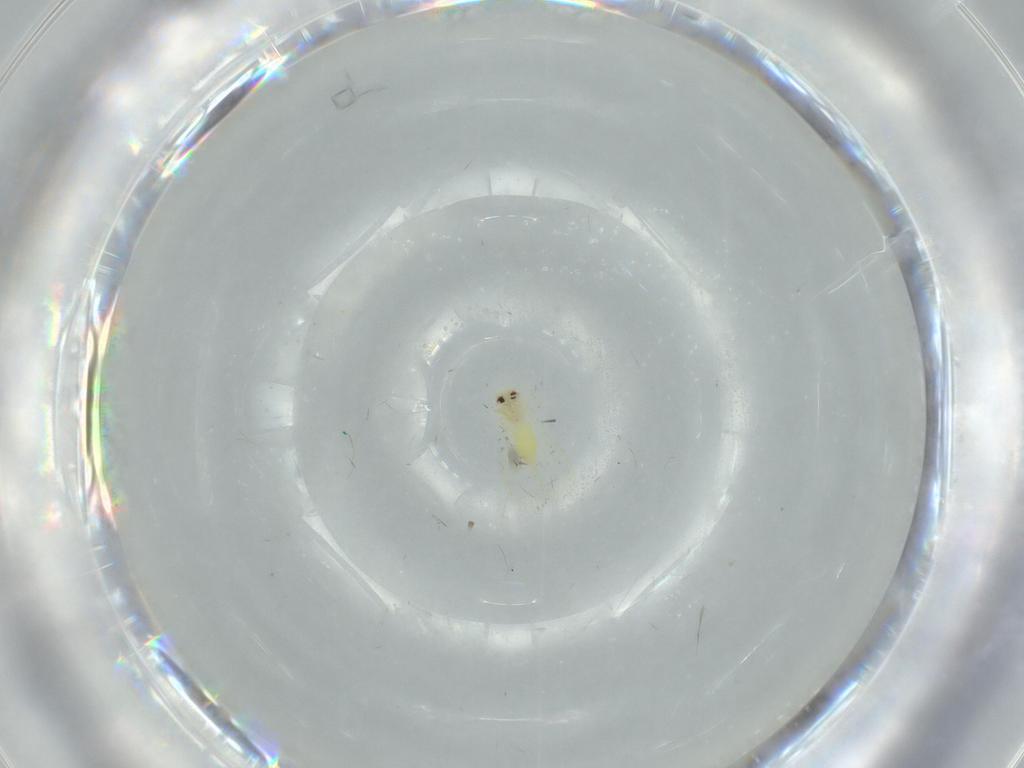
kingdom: Animalia
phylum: Arthropoda
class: Insecta
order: Hemiptera
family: Aleyrodidae
